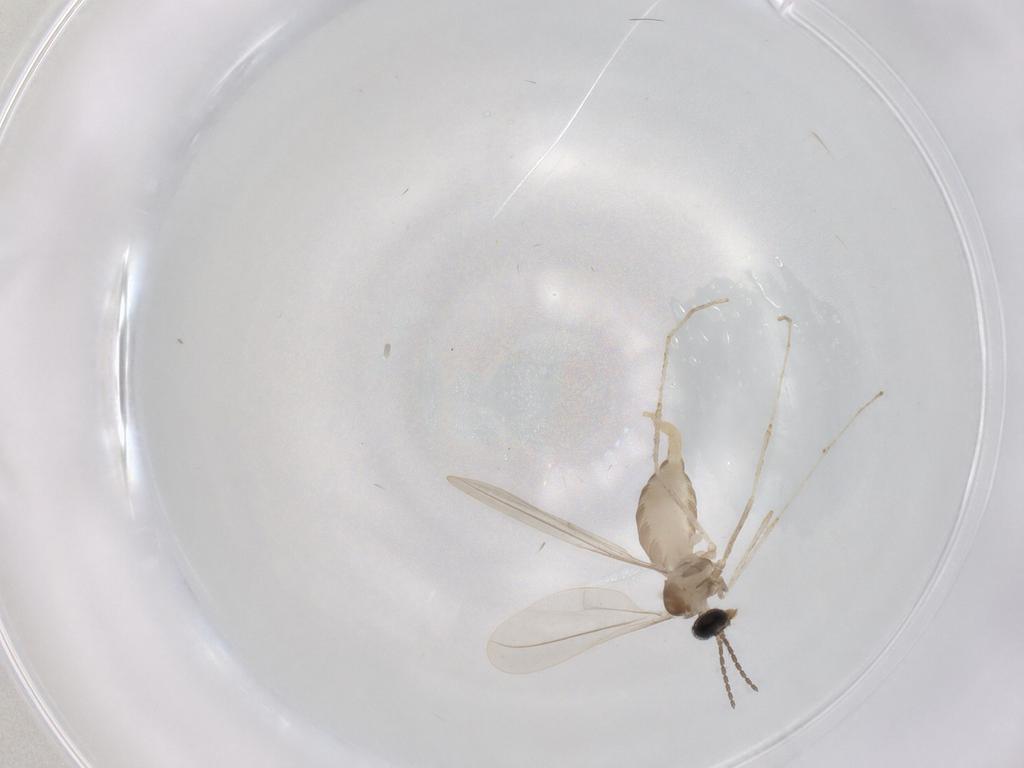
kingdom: Animalia
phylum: Arthropoda
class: Insecta
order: Diptera
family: Cecidomyiidae
